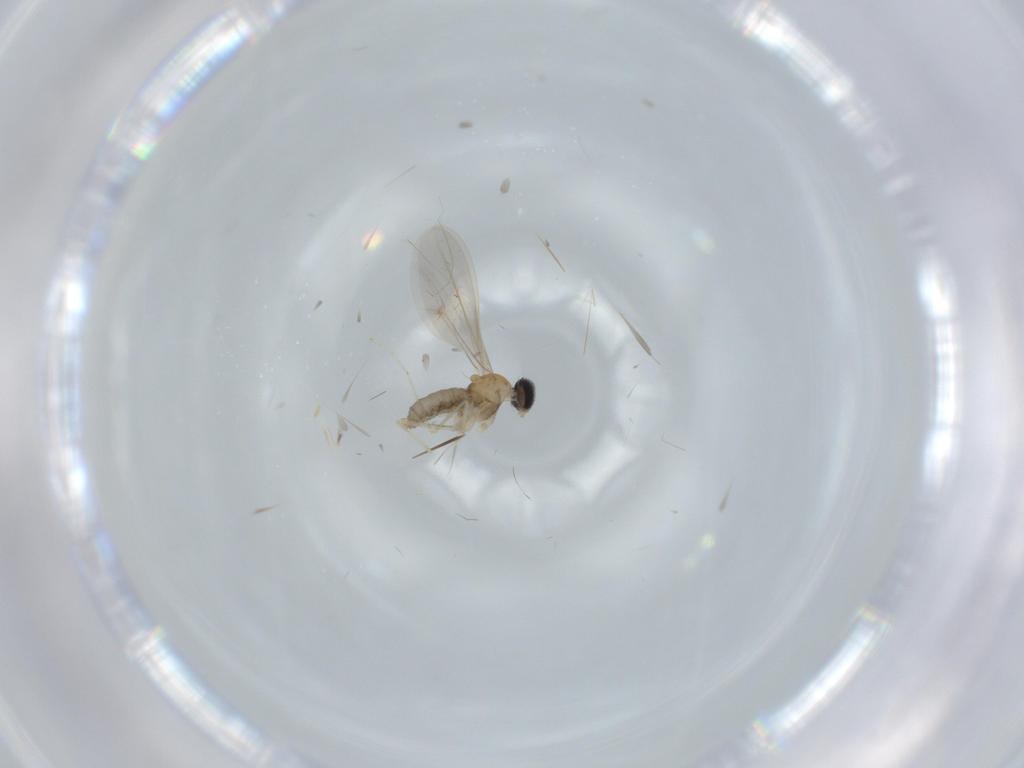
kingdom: Animalia
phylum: Arthropoda
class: Insecta
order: Diptera
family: Cecidomyiidae
